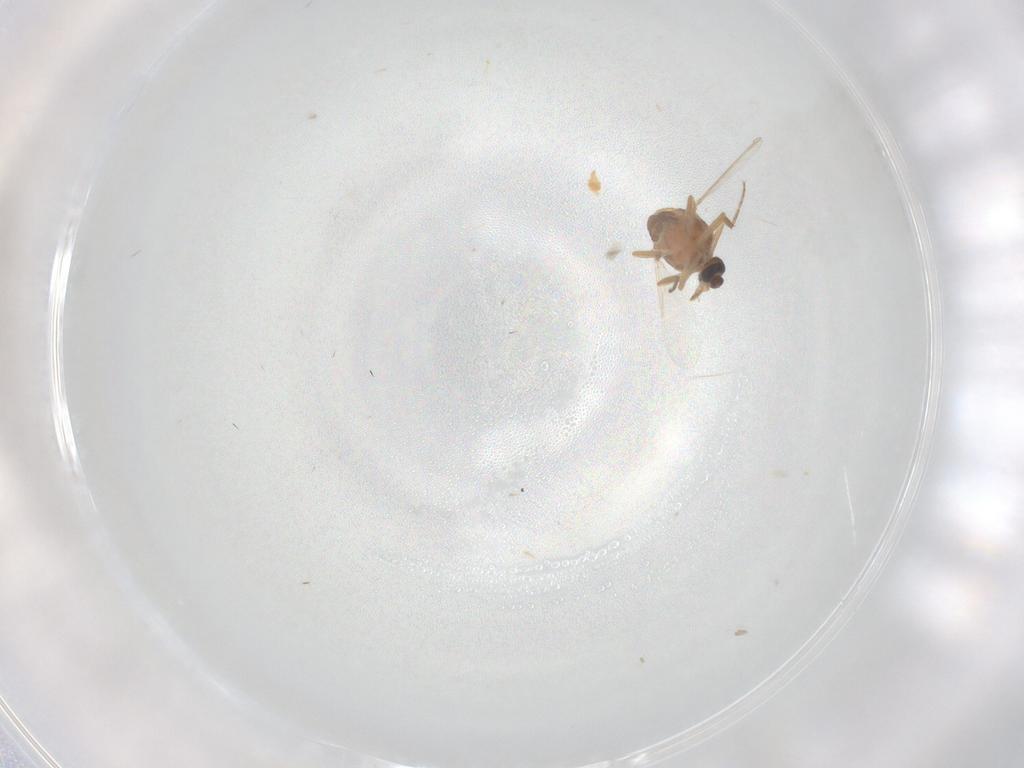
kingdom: Animalia
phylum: Arthropoda
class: Insecta
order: Diptera
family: Ceratopogonidae
